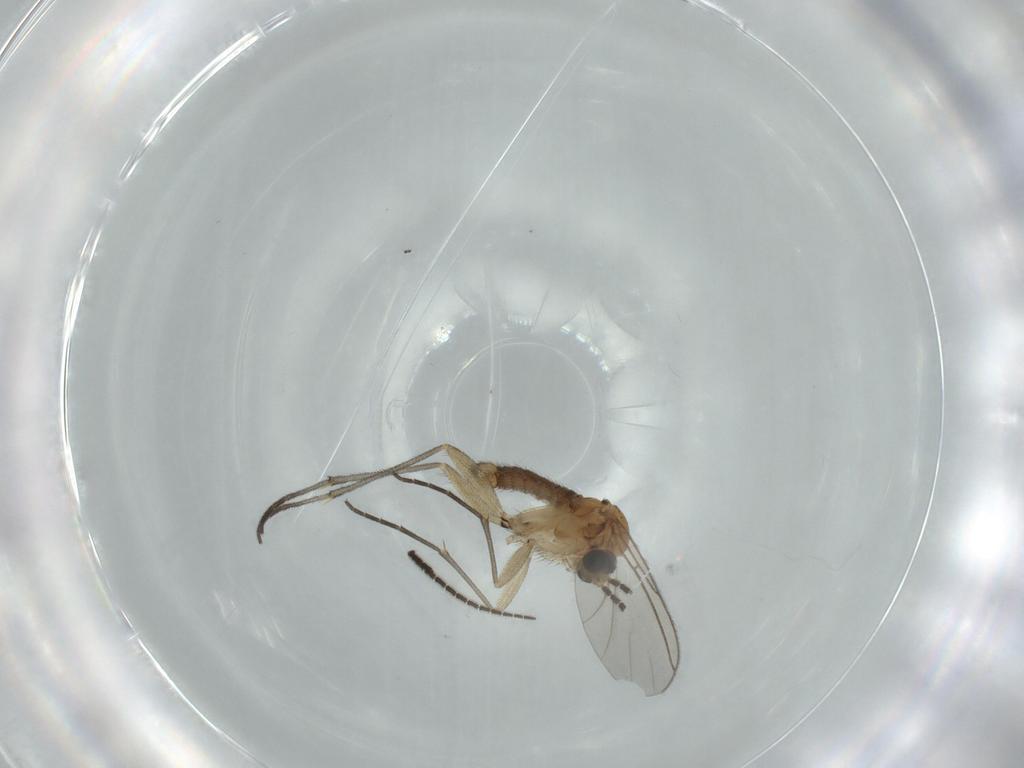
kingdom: Animalia
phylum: Arthropoda
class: Insecta
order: Diptera
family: Sciaridae
